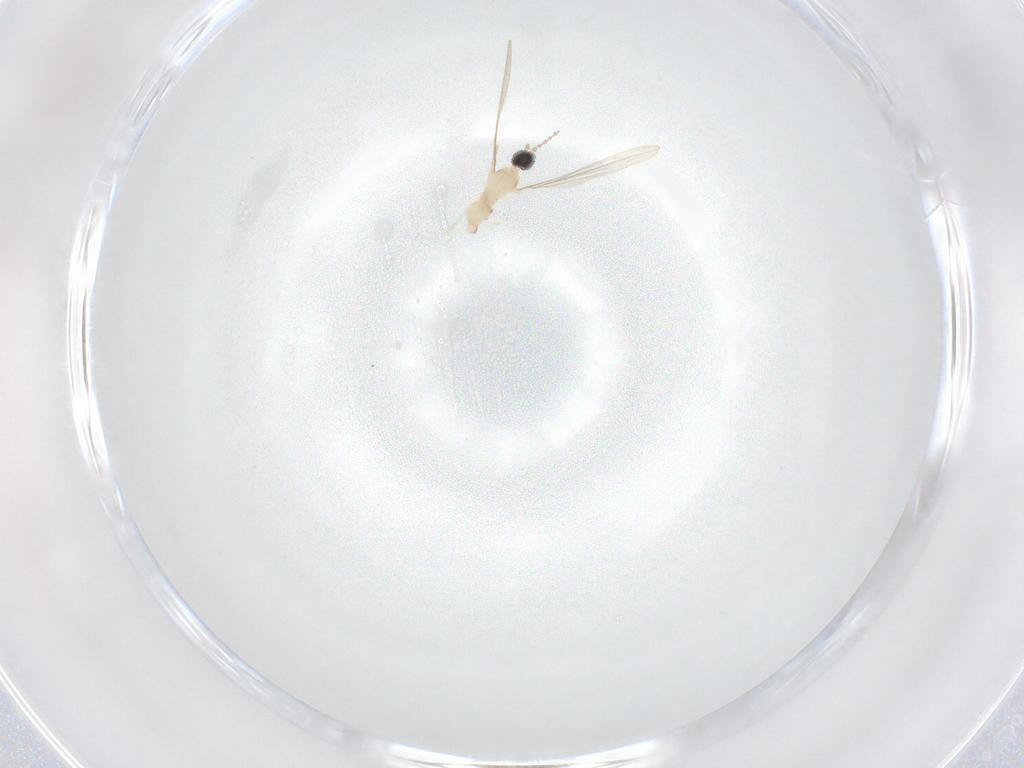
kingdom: Animalia
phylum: Arthropoda
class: Insecta
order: Diptera
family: Cecidomyiidae
